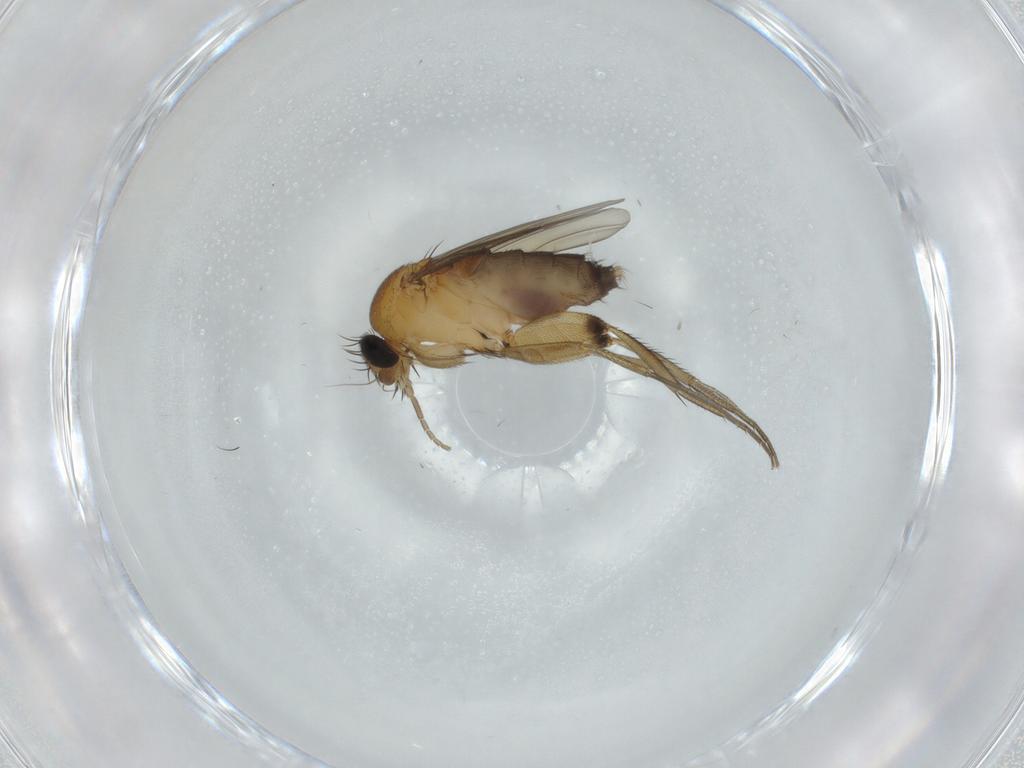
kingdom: Animalia
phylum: Arthropoda
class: Insecta
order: Diptera
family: Phoridae
